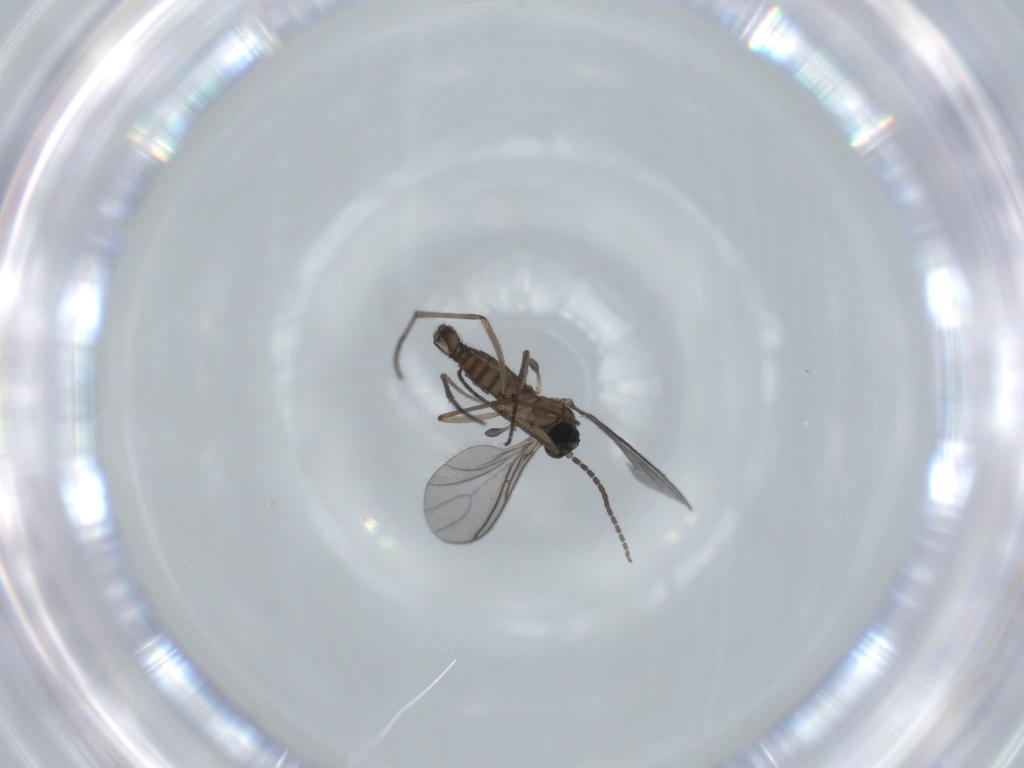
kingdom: Animalia
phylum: Arthropoda
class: Insecta
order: Diptera
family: Sciaridae
